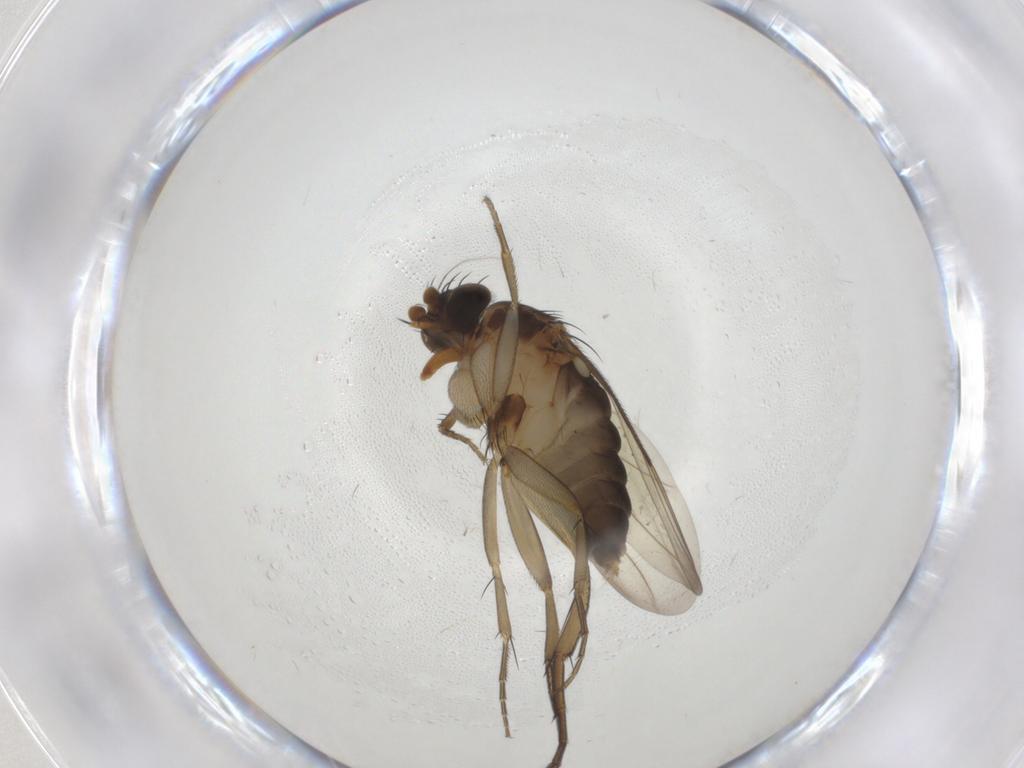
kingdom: Animalia
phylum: Arthropoda
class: Insecta
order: Diptera
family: Phoridae
